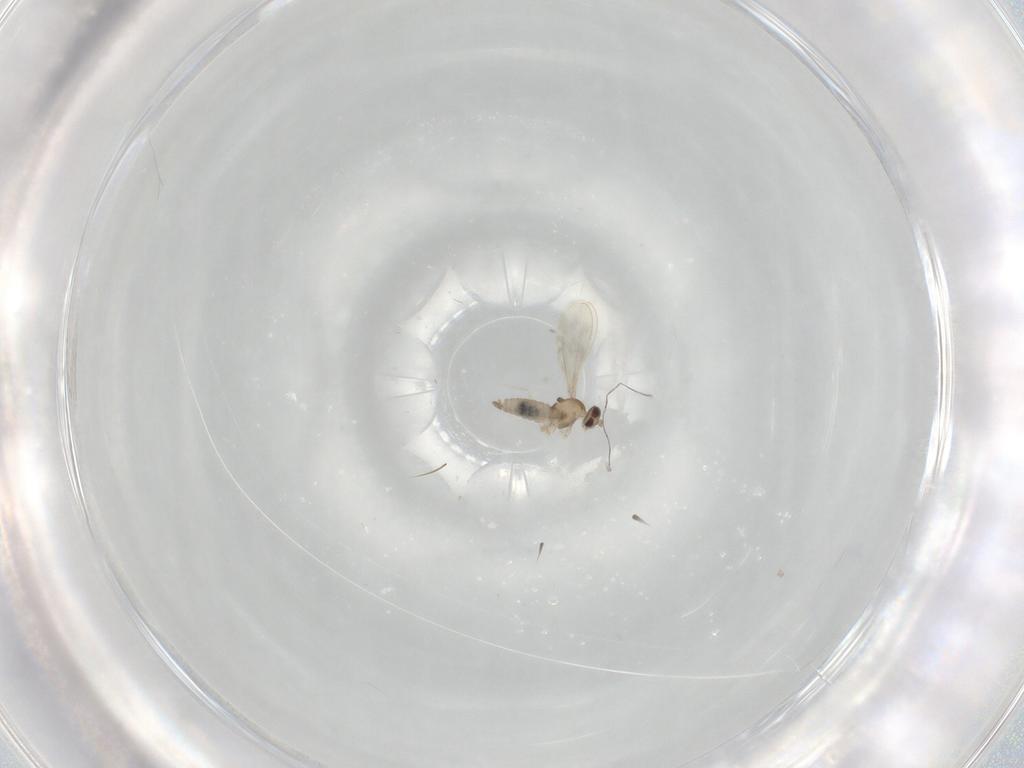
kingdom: Animalia
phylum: Arthropoda
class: Insecta
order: Diptera
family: Cecidomyiidae
